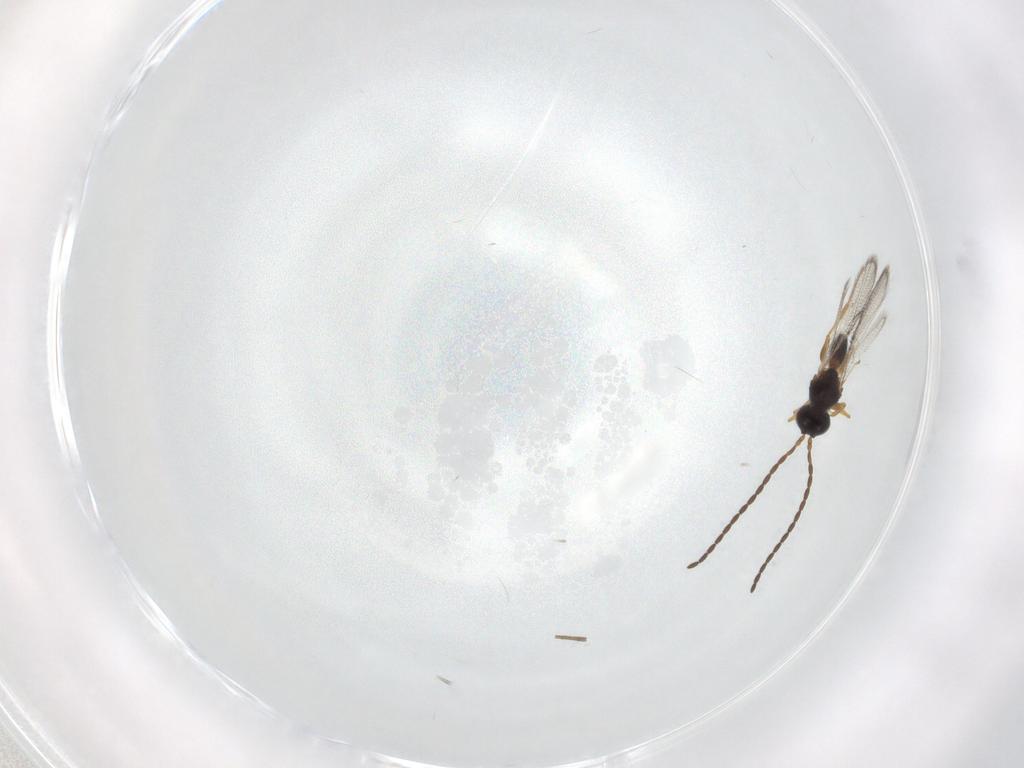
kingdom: Animalia
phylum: Arthropoda
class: Insecta
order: Hymenoptera
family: Figitidae
